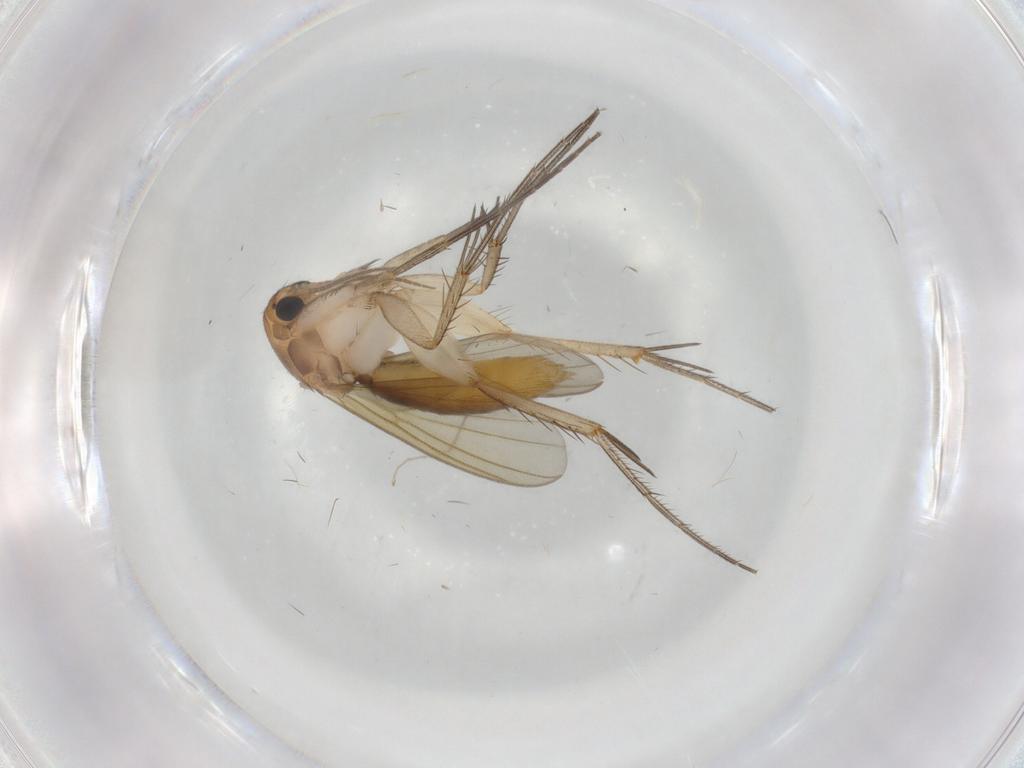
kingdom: Animalia
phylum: Arthropoda
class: Insecta
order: Diptera
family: Mycetophilidae
